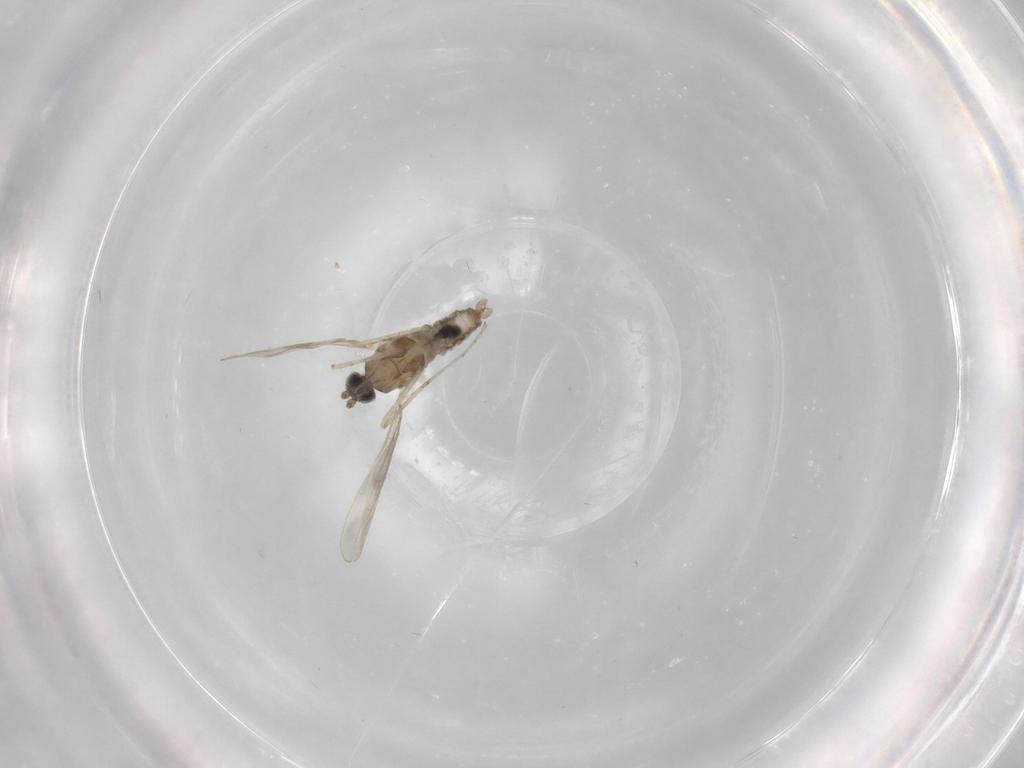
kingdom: Animalia
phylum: Arthropoda
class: Insecta
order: Diptera
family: Cecidomyiidae
